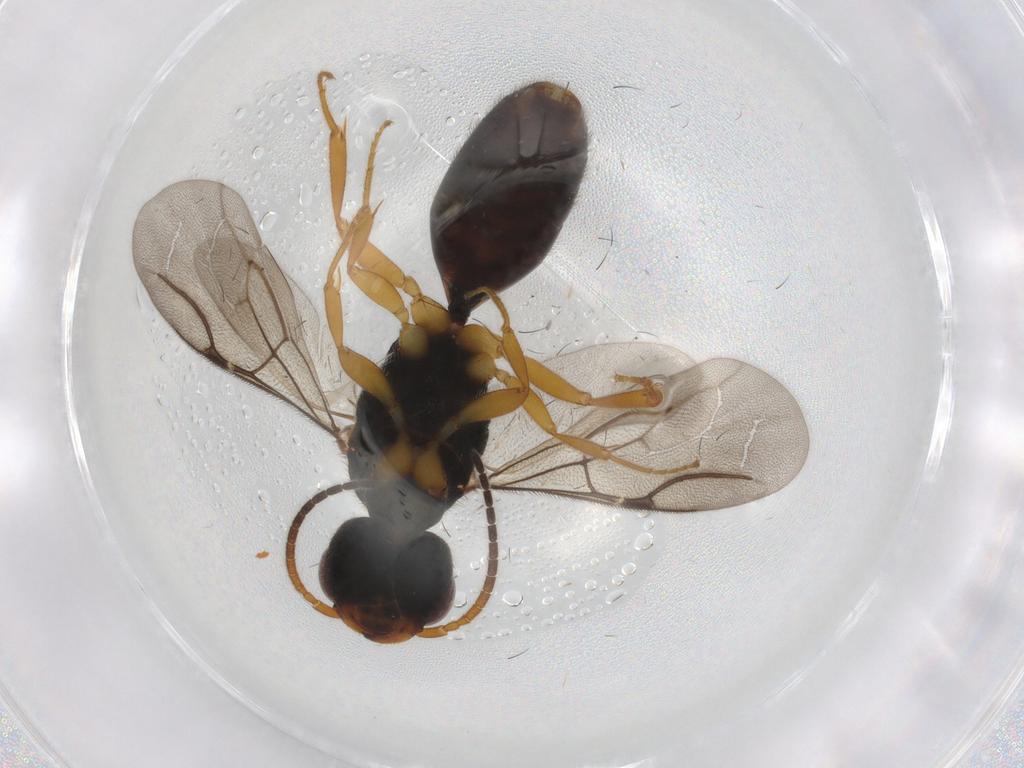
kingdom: Animalia
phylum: Arthropoda
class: Insecta
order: Hymenoptera
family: Bethylidae
